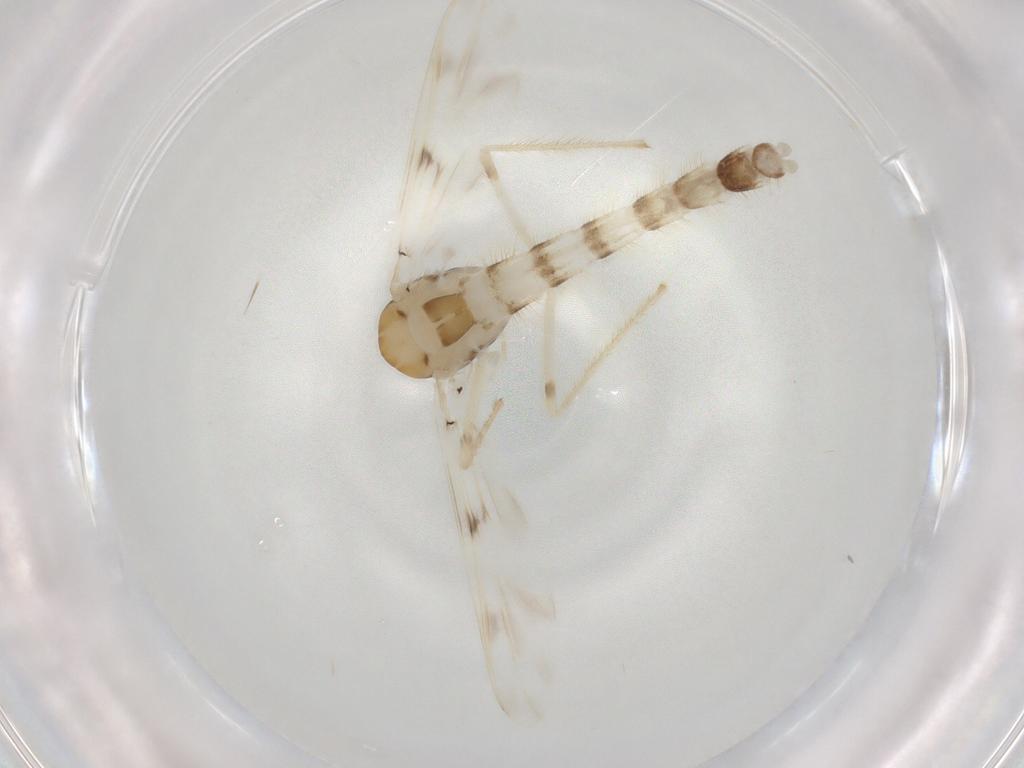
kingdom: Animalia
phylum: Arthropoda
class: Insecta
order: Diptera
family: Chironomidae
